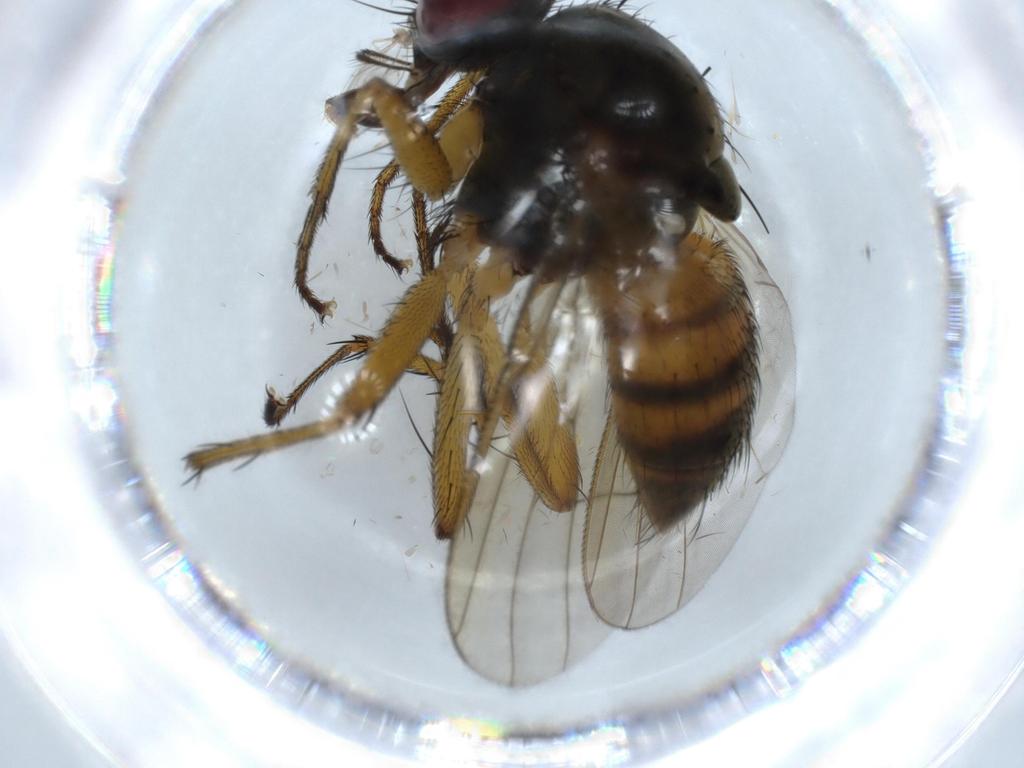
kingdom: Animalia
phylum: Arthropoda
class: Insecta
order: Diptera
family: Muscidae
